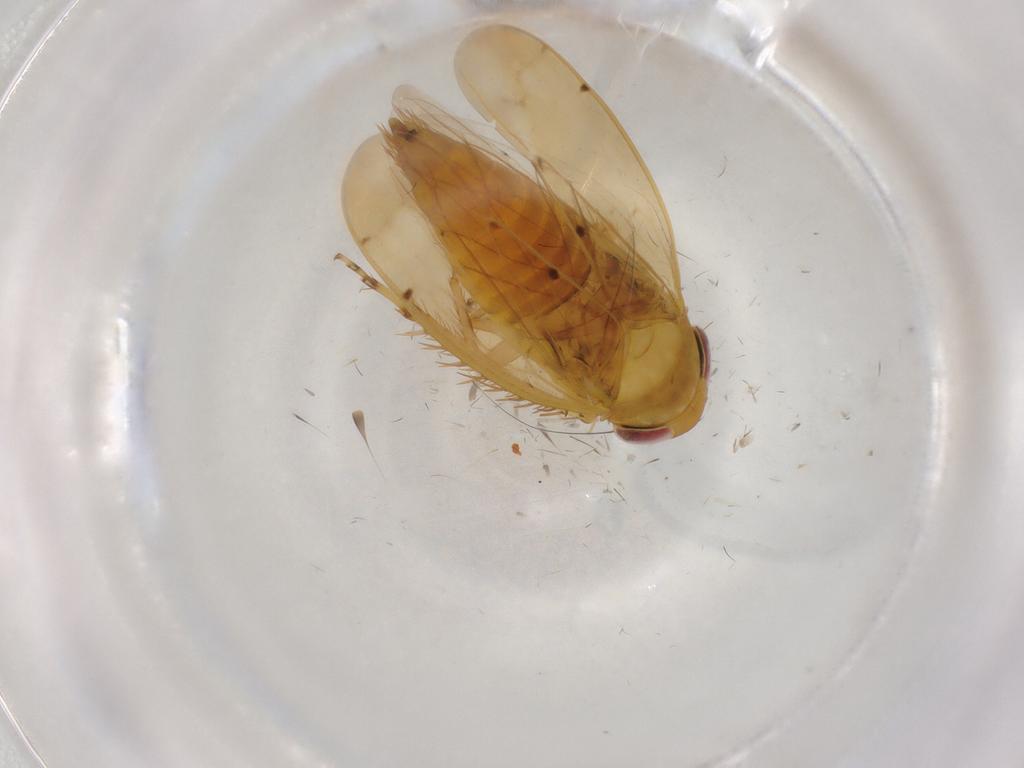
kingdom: Animalia
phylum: Arthropoda
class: Insecta
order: Hemiptera
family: Cicadellidae
